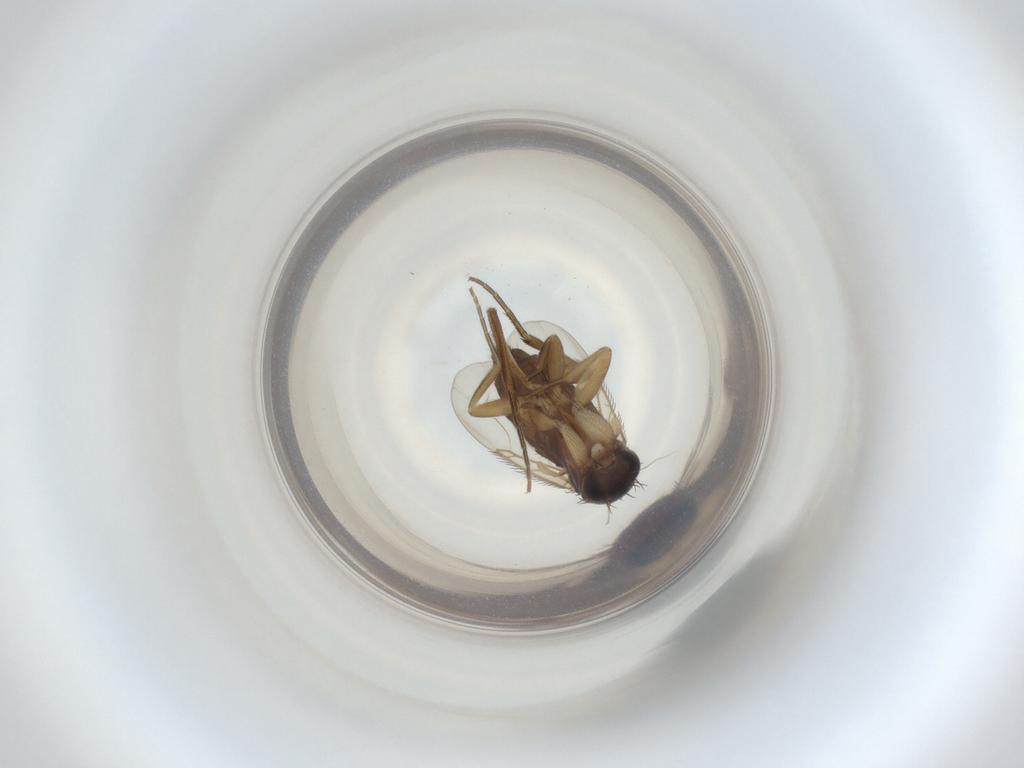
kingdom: Animalia
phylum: Arthropoda
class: Insecta
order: Diptera
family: Phoridae
